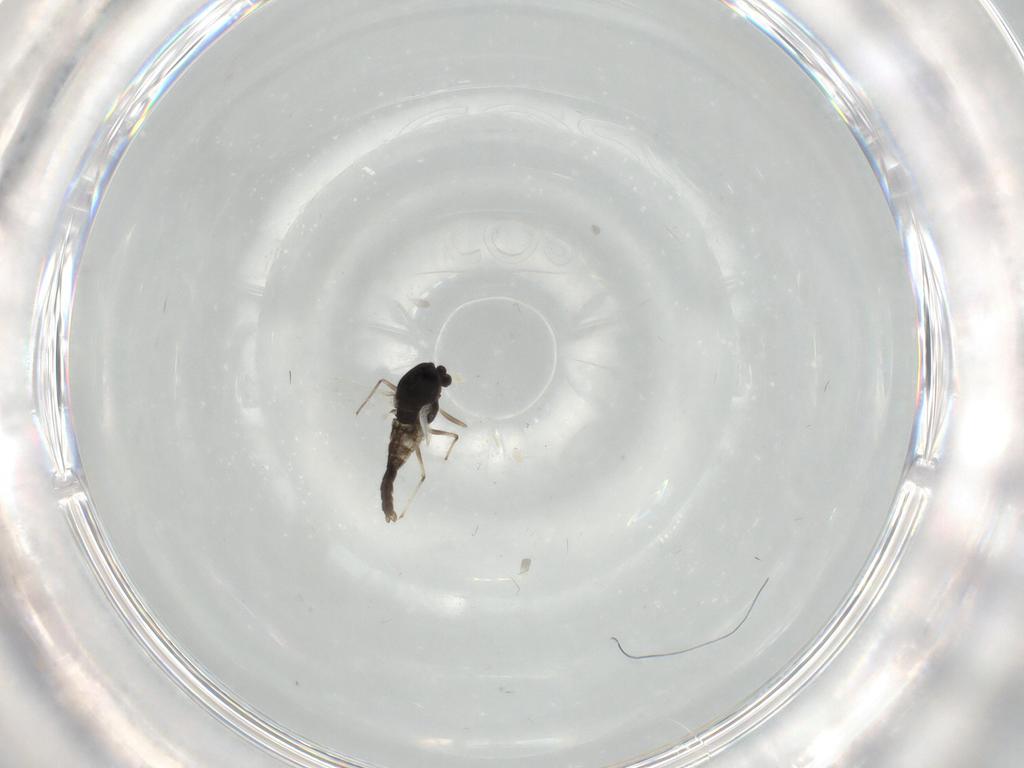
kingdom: Animalia
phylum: Arthropoda
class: Insecta
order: Diptera
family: Chironomidae
